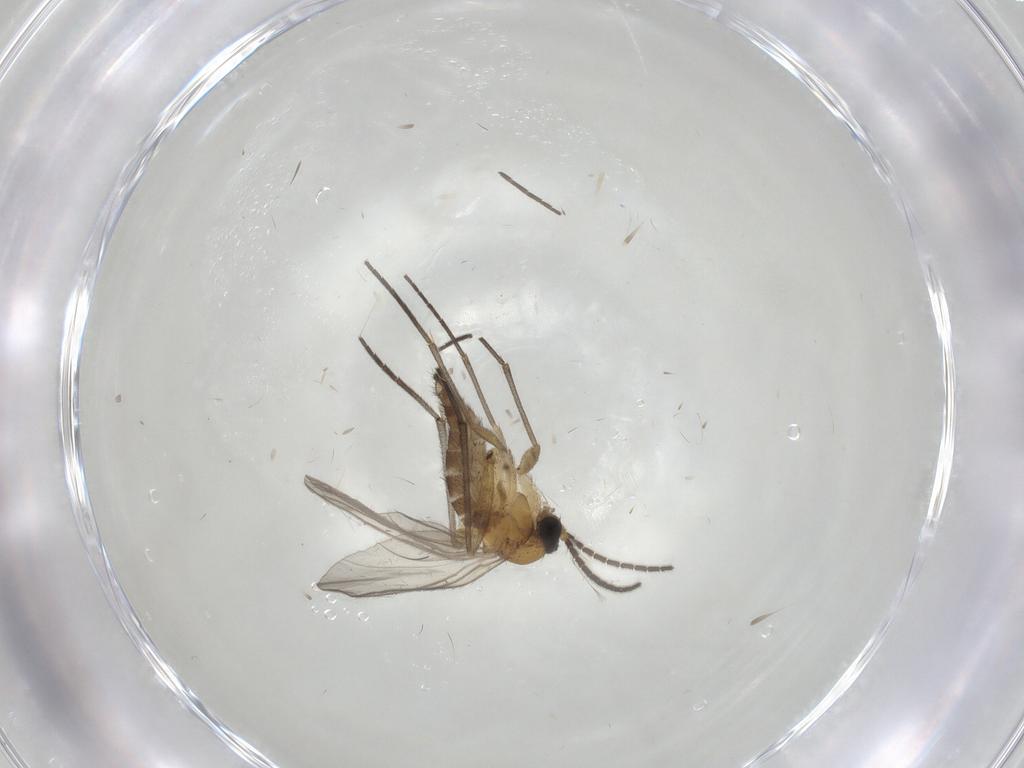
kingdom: Animalia
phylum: Arthropoda
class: Insecta
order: Diptera
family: Sciaridae
